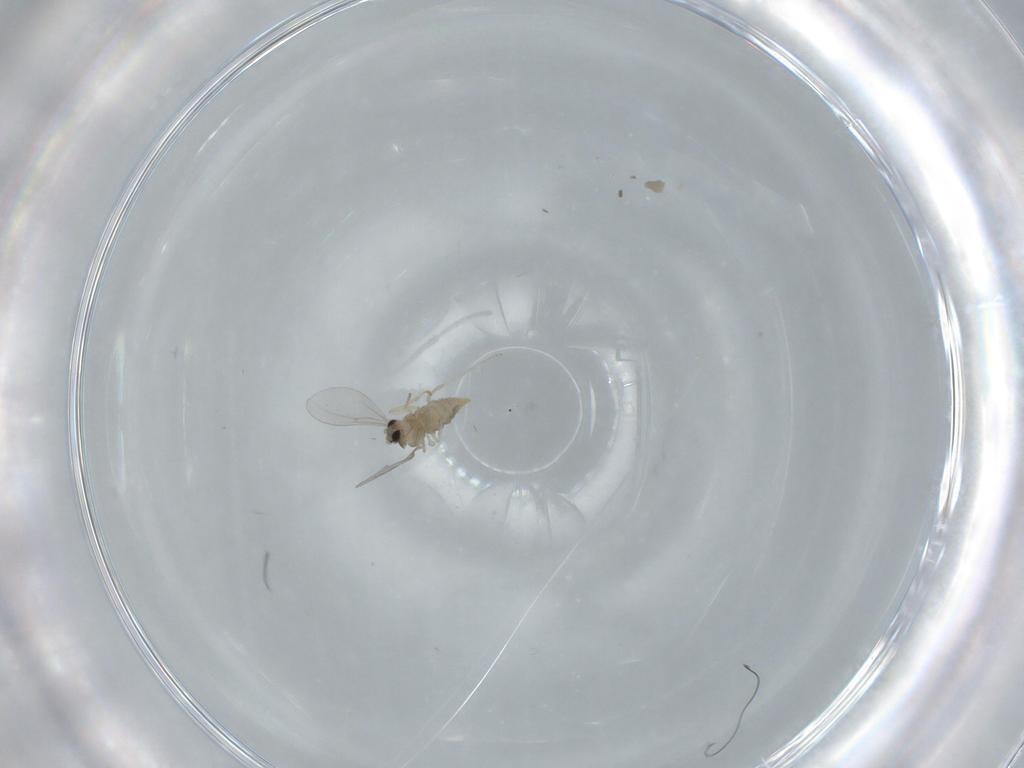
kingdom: Animalia
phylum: Arthropoda
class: Insecta
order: Diptera
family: Cecidomyiidae
